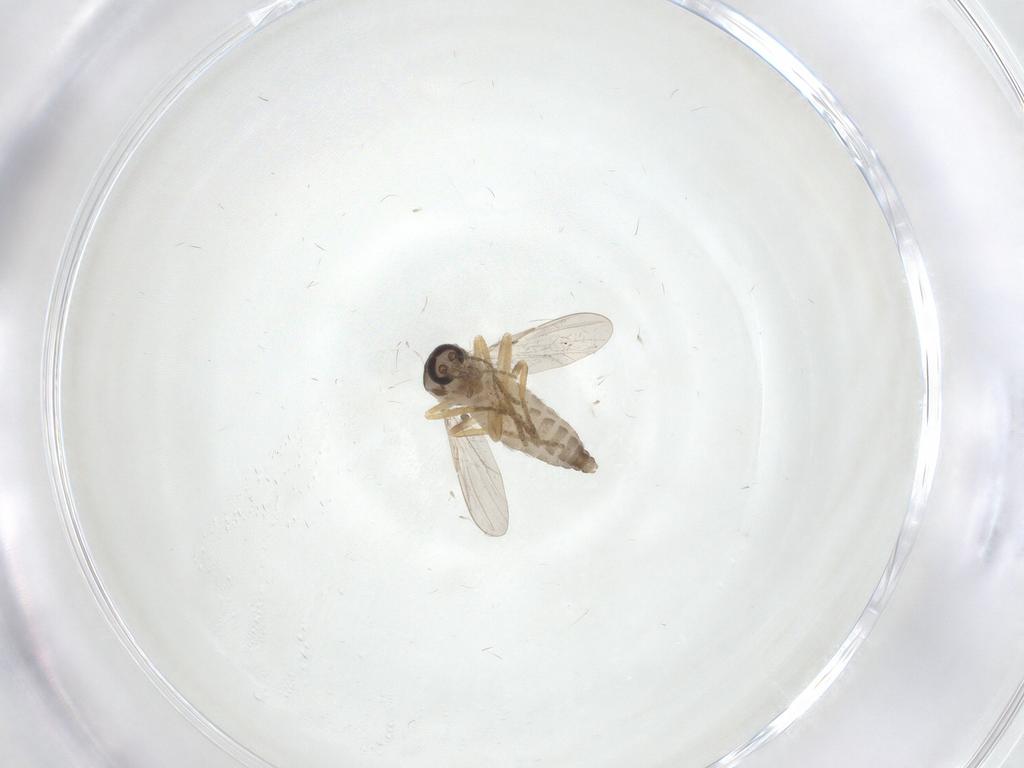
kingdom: Animalia
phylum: Arthropoda
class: Insecta
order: Diptera
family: Ceratopogonidae
